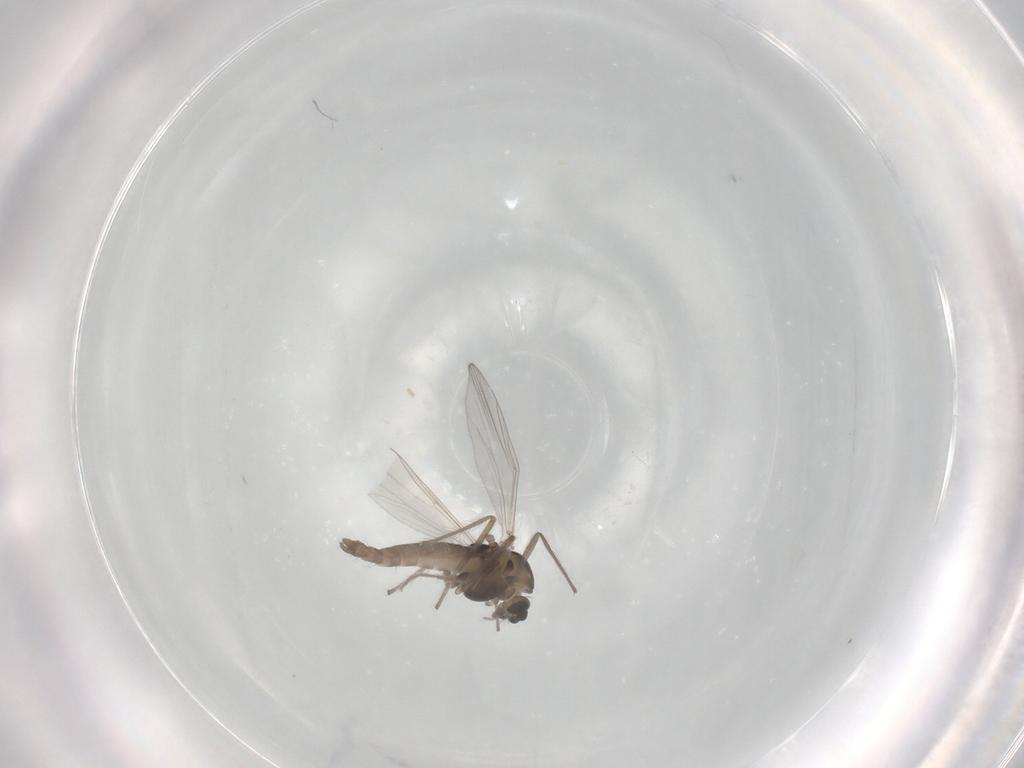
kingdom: Animalia
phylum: Arthropoda
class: Insecta
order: Diptera
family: Chironomidae
